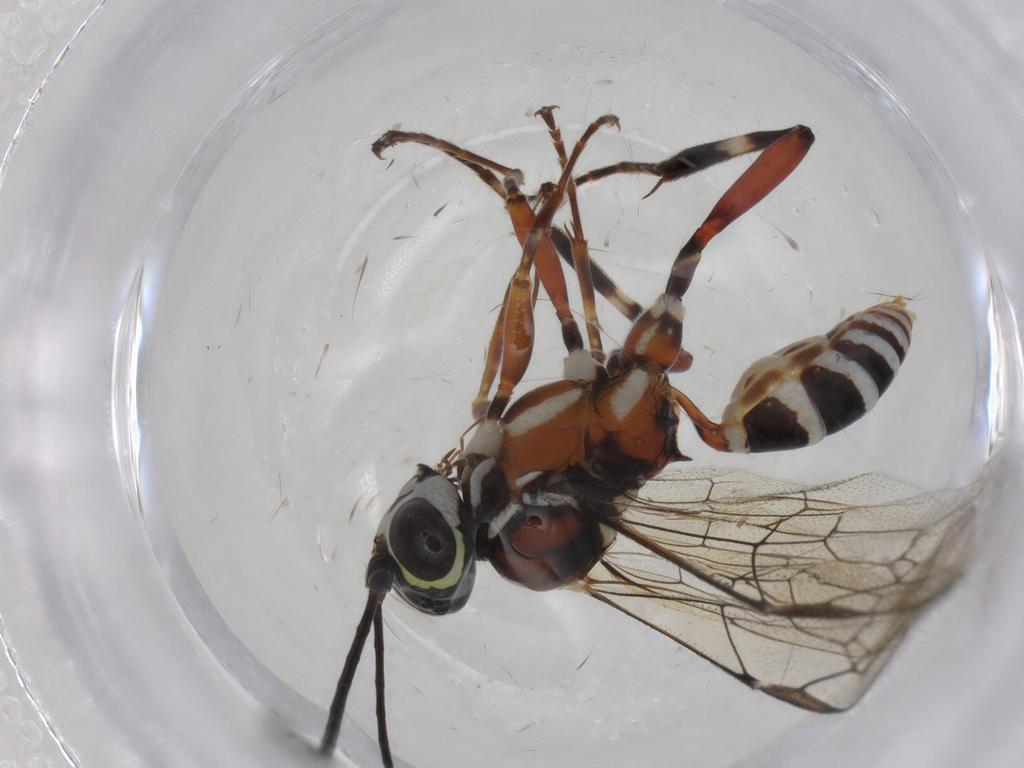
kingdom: Animalia
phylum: Arthropoda
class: Insecta
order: Hymenoptera
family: Ichneumonidae
